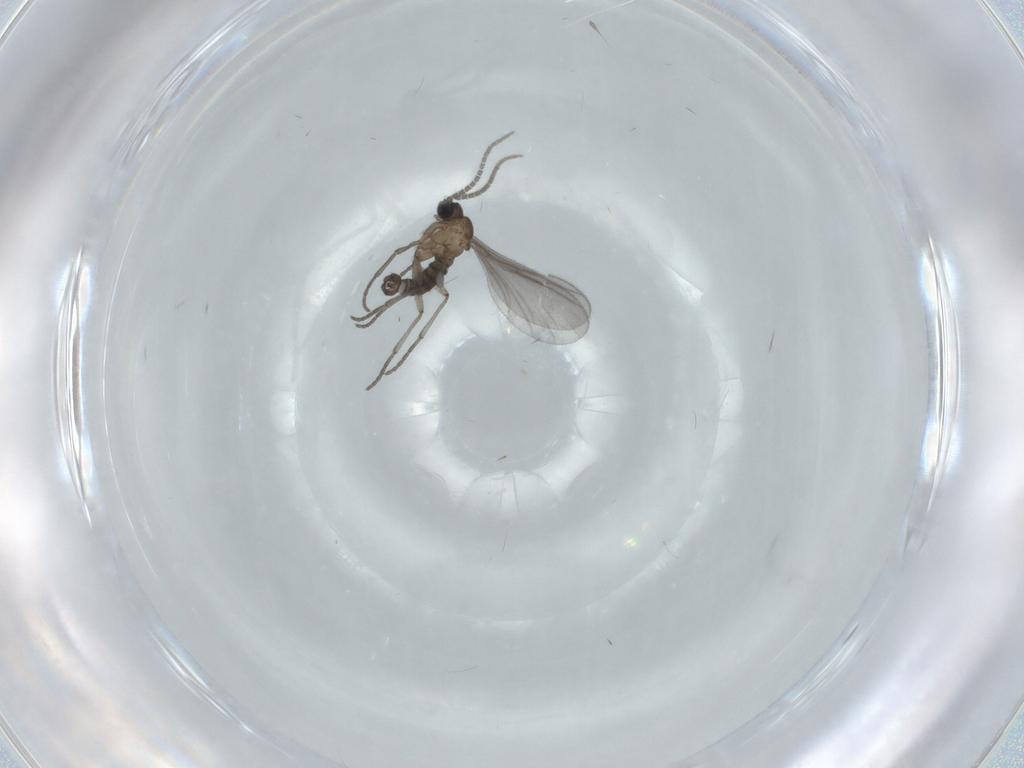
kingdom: Animalia
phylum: Arthropoda
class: Insecta
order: Diptera
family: Sciaridae
